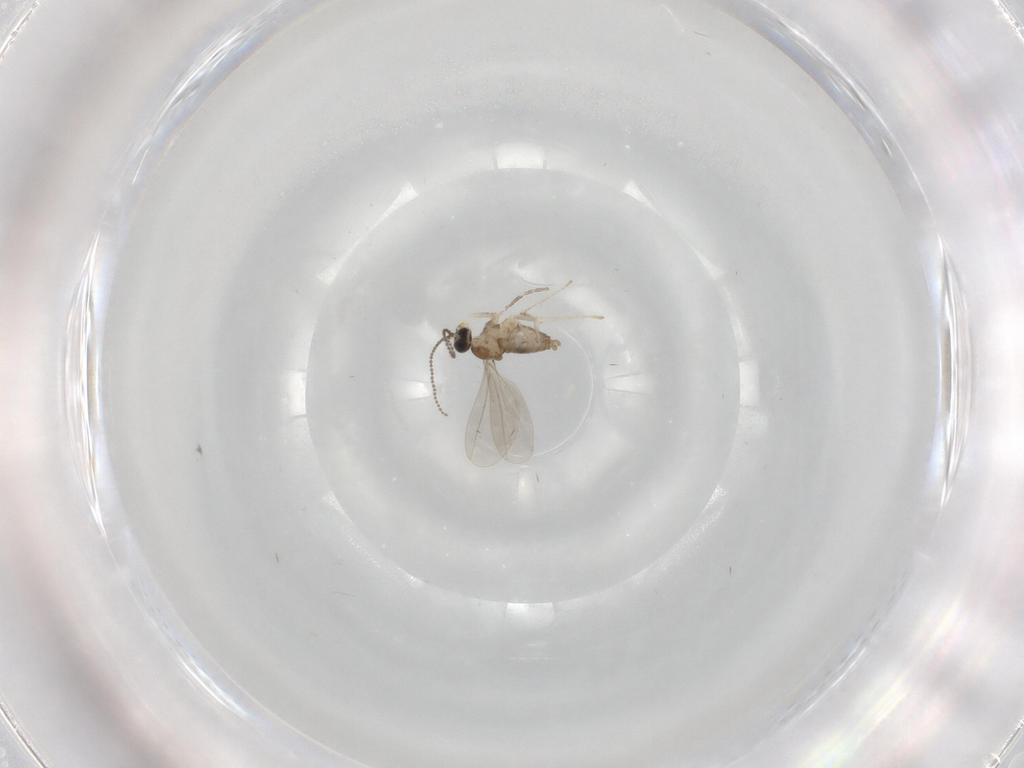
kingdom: Animalia
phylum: Arthropoda
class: Insecta
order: Diptera
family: Cecidomyiidae
